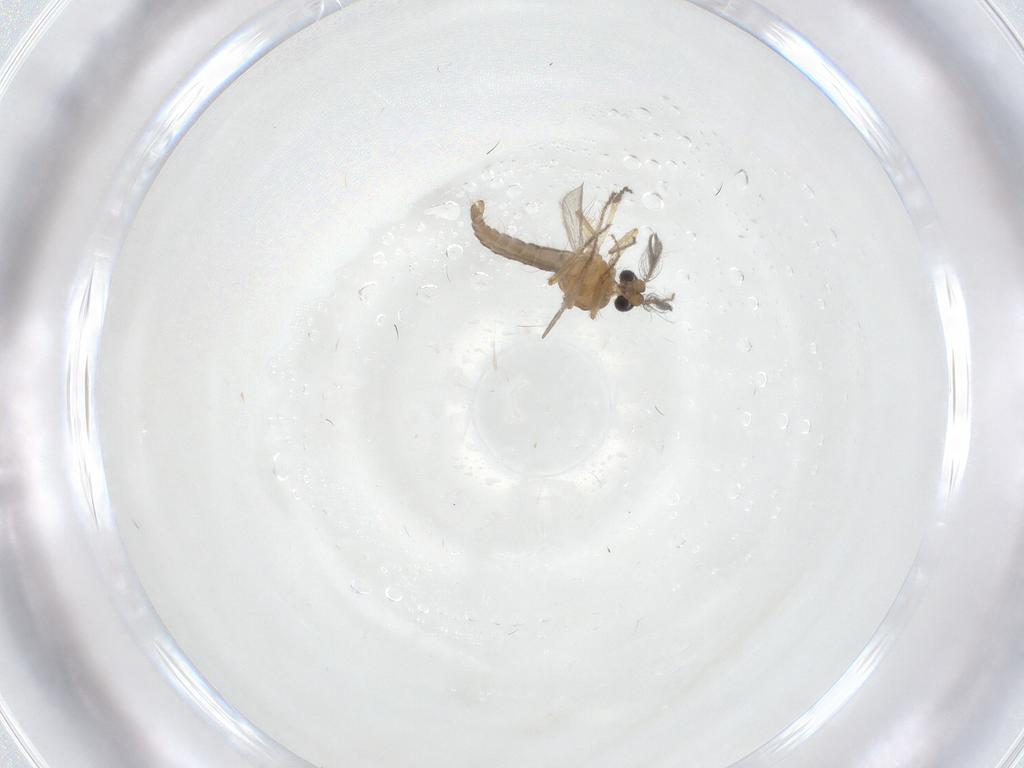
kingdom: Animalia
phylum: Arthropoda
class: Insecta
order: Diptera
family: Ceratopogonidae
